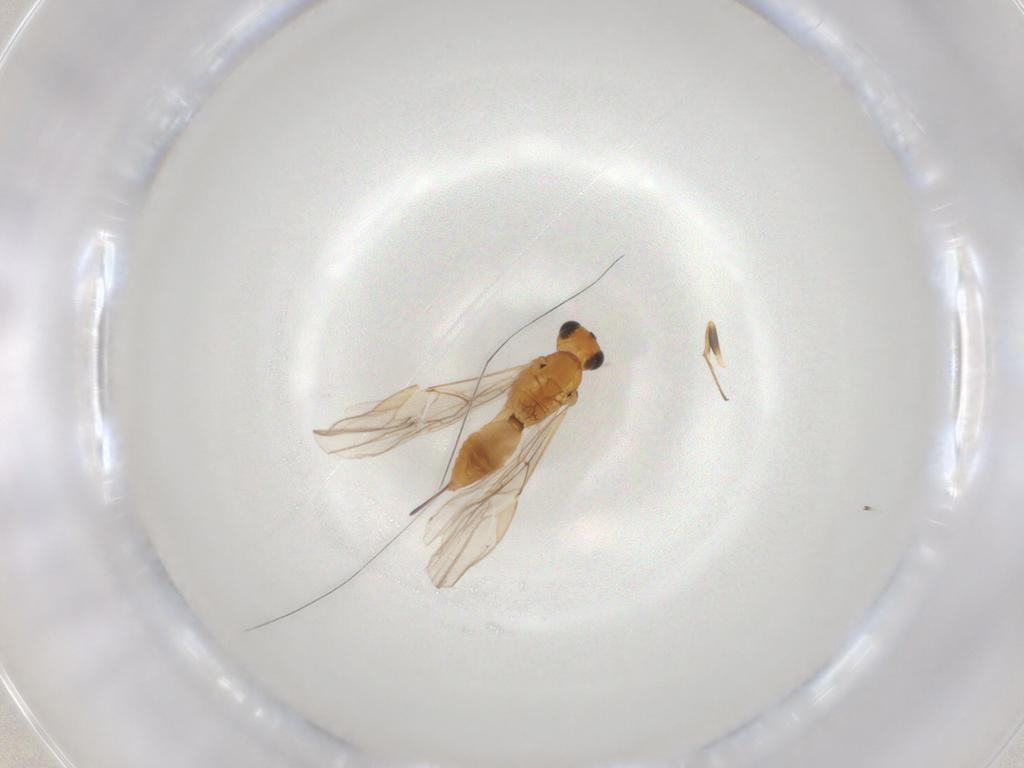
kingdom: Animalia
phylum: Arthropoda
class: Insecta
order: Hymenoptera
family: Braconidae
